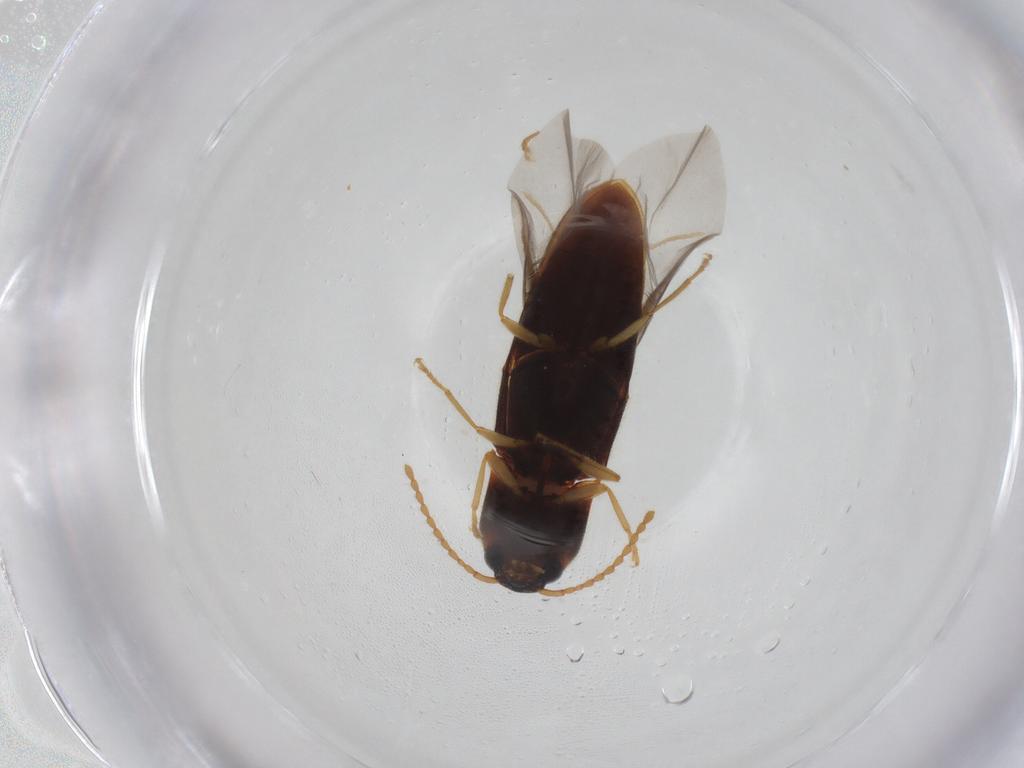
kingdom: Animalia
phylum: Arthropoda
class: Insecta
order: Coleoptera
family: Elateridae
